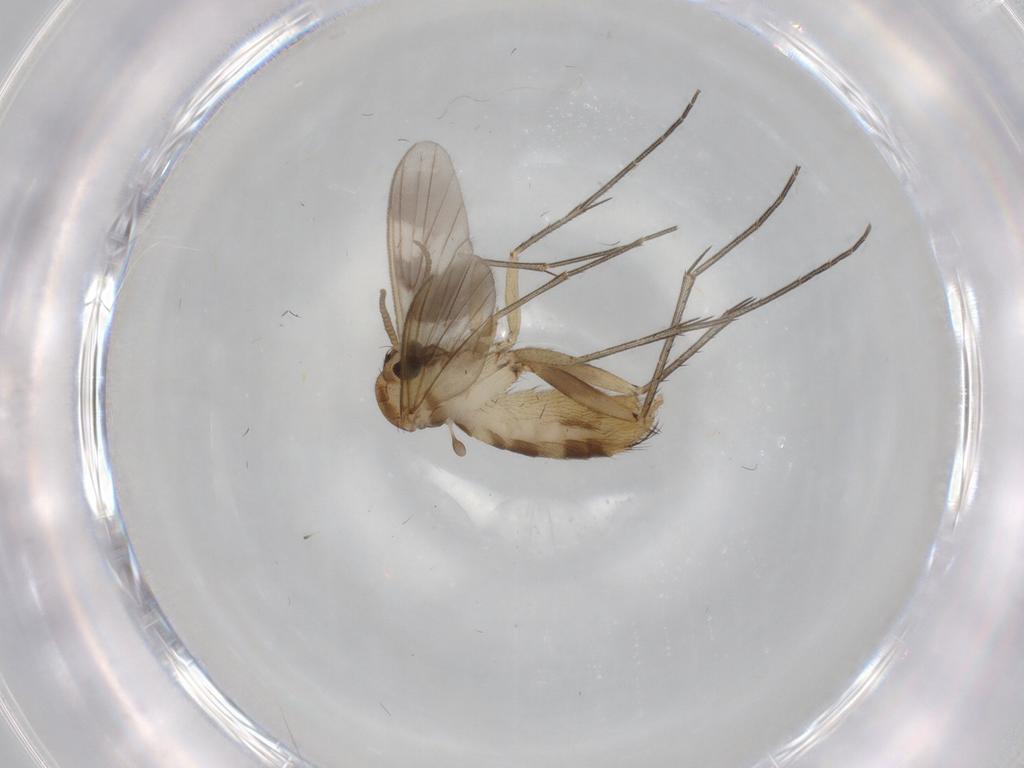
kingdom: Animalia
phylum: Arthropoda
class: Insecta
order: Diptera
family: Mycetophilidae
